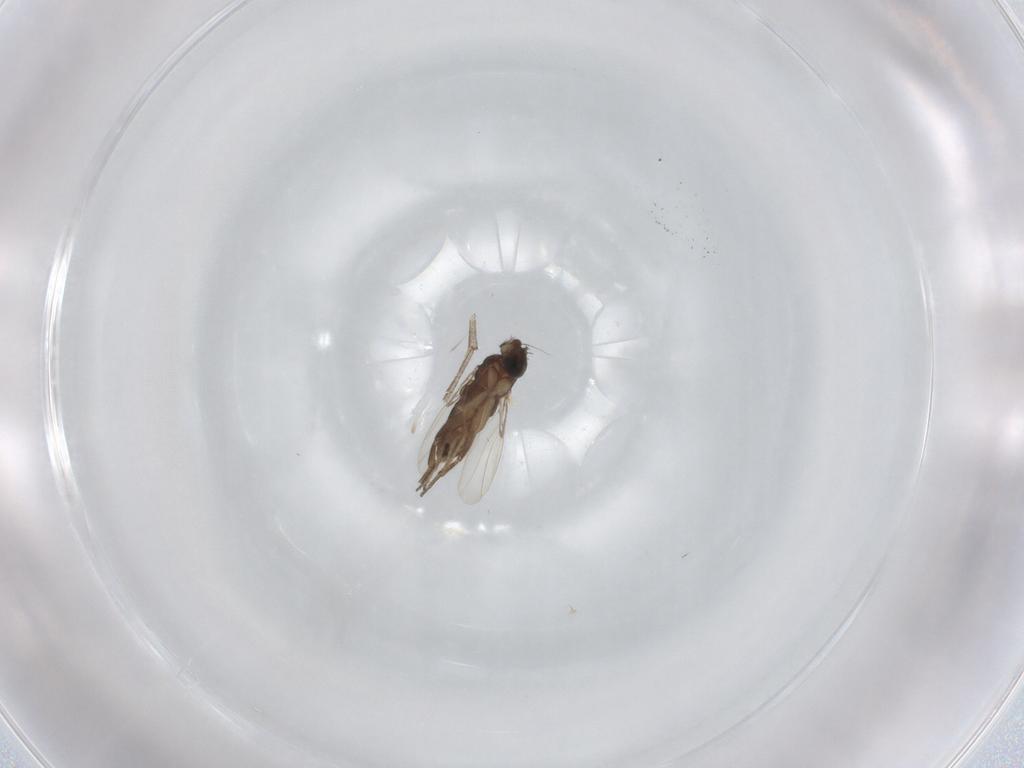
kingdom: Animalia
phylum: Arthropoda
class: Insecta
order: Diptera
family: Phoridae
